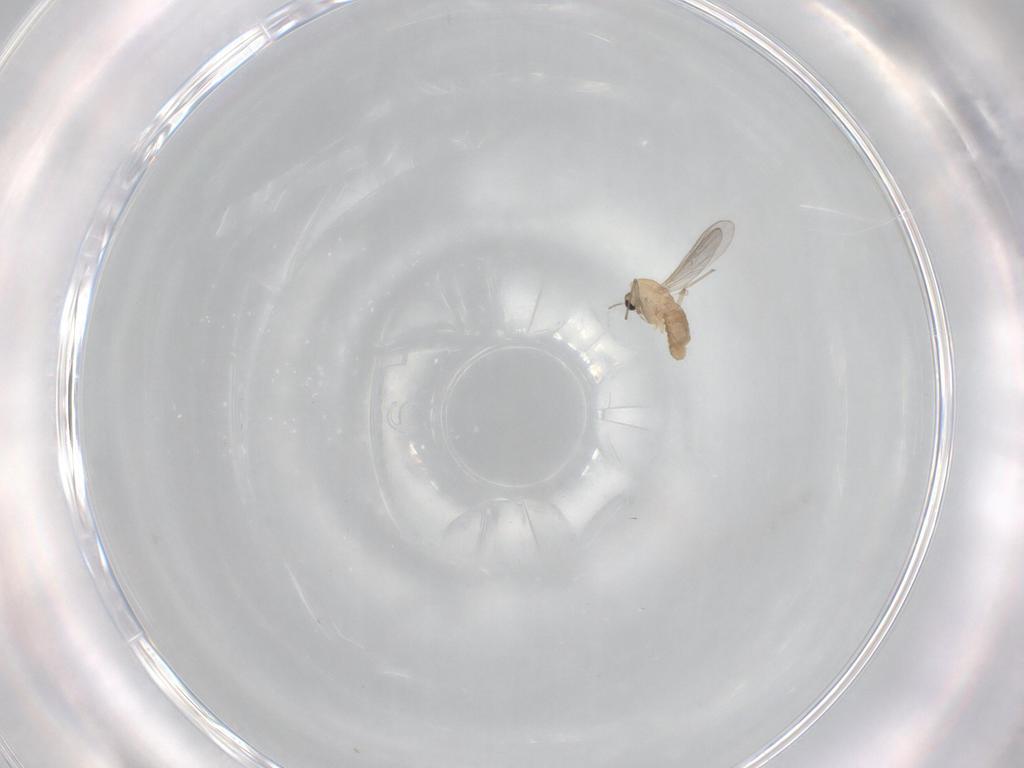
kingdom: Animalia
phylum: Arthropoda
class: Insecta
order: Diptera
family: Chironomidae
